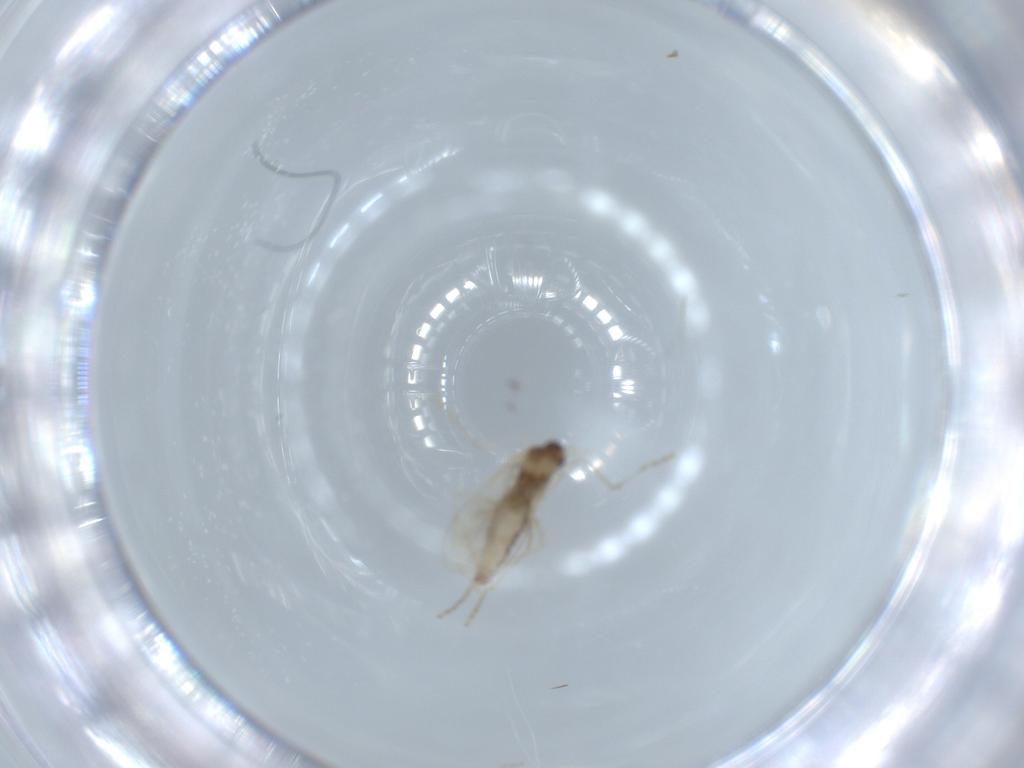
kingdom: Animalia
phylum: Arthropoda
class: Insecta
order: Diptera
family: Cecidomyiidae
